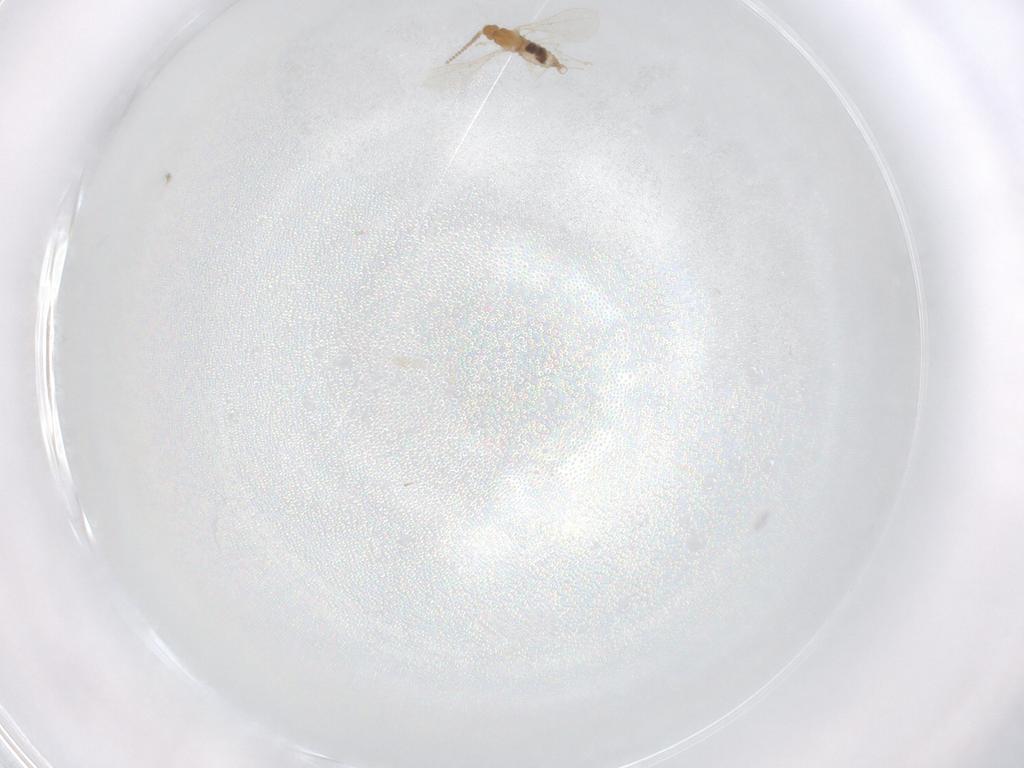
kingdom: Animalia
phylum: Arthropoda
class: Insecta
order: Diptera
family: Cecidomyiidae
